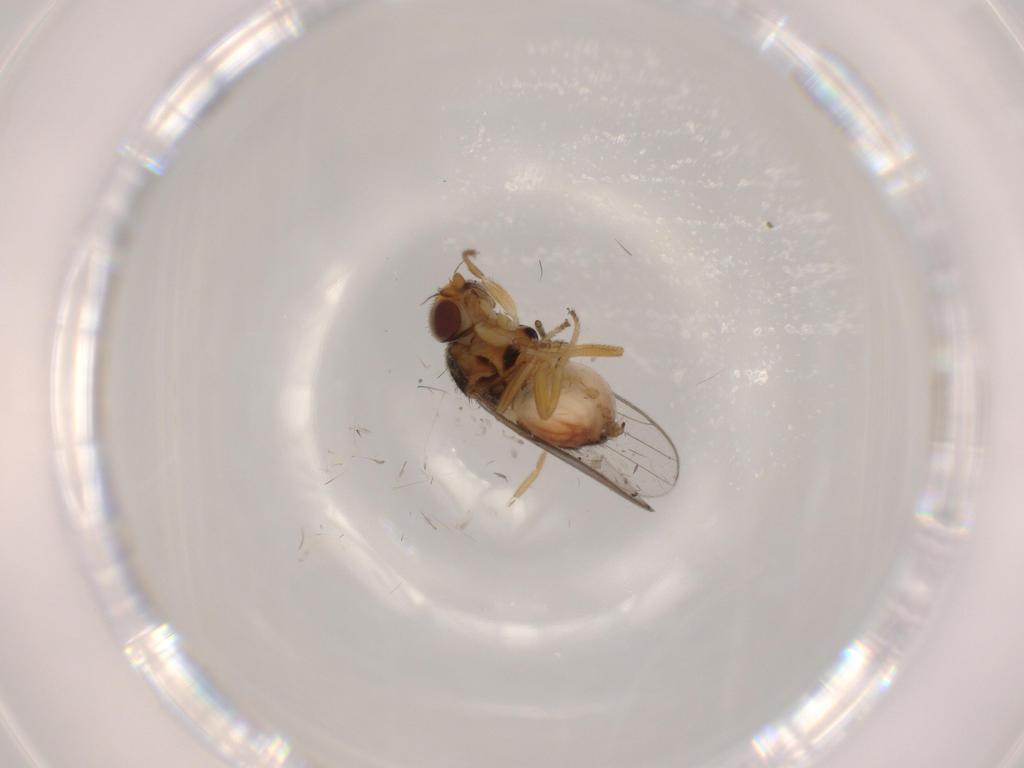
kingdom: Animalia
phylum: Arthropoda
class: Insecta
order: Diptera
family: Chloropidae
